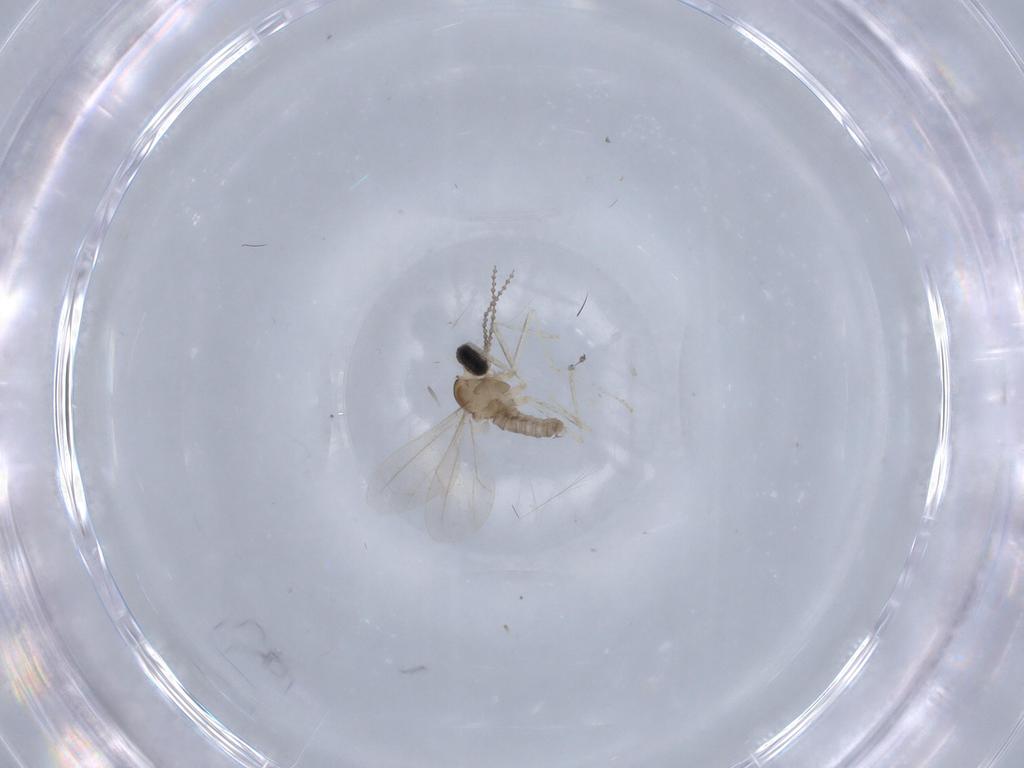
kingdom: Animalia
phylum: Arthropoda
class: Insecta
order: Diptera
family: Cecidomyiidae
